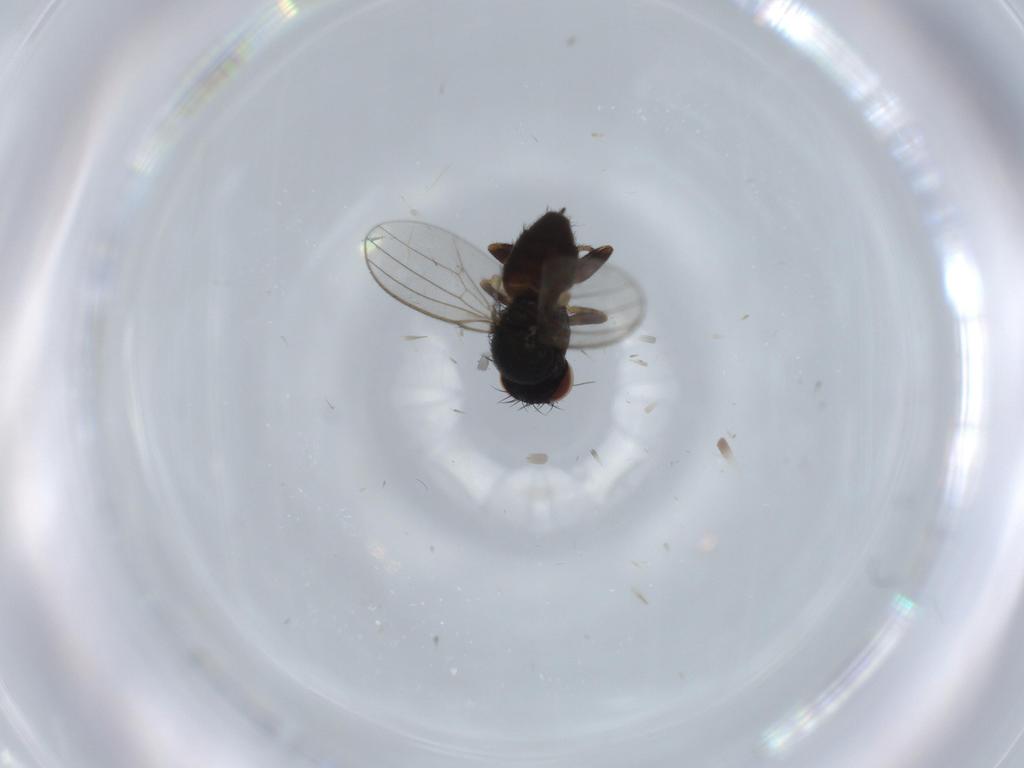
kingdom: Animalia
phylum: Arthropoda
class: Insecta
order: Diptera
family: Milichiidae
